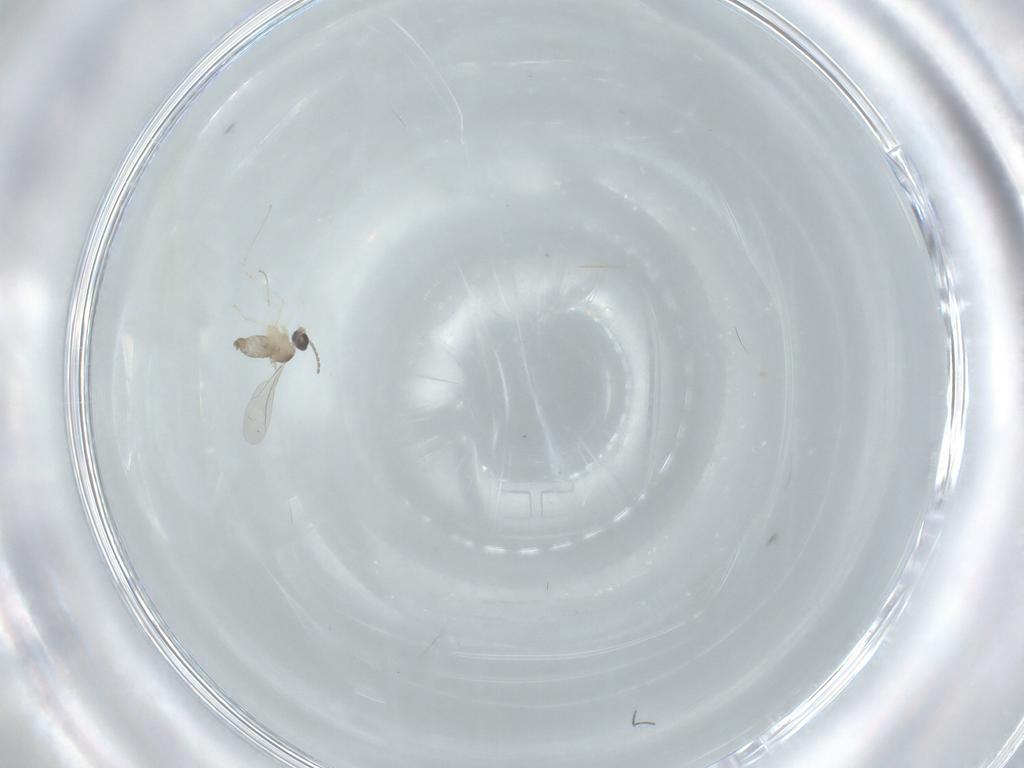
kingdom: Animalia
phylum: Arthropoda
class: Insecta
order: Diptera
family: Cecidomyiidae
